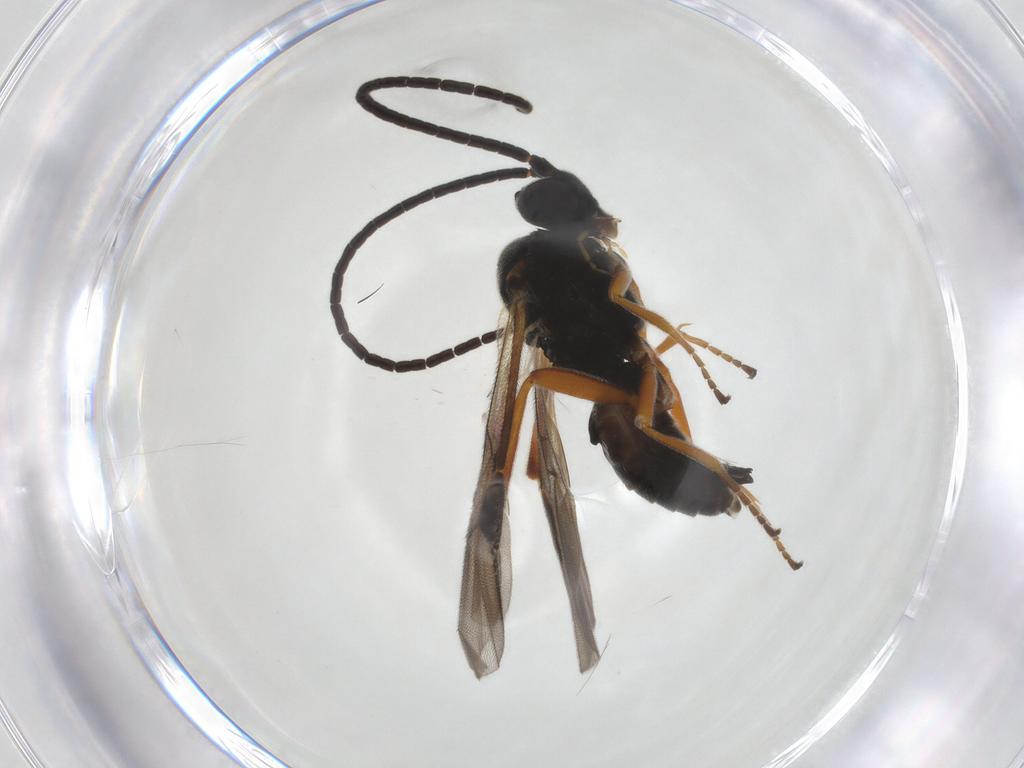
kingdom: Animalia
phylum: Arthropoda
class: Insecta
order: Hymenoptera
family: Braconidae
